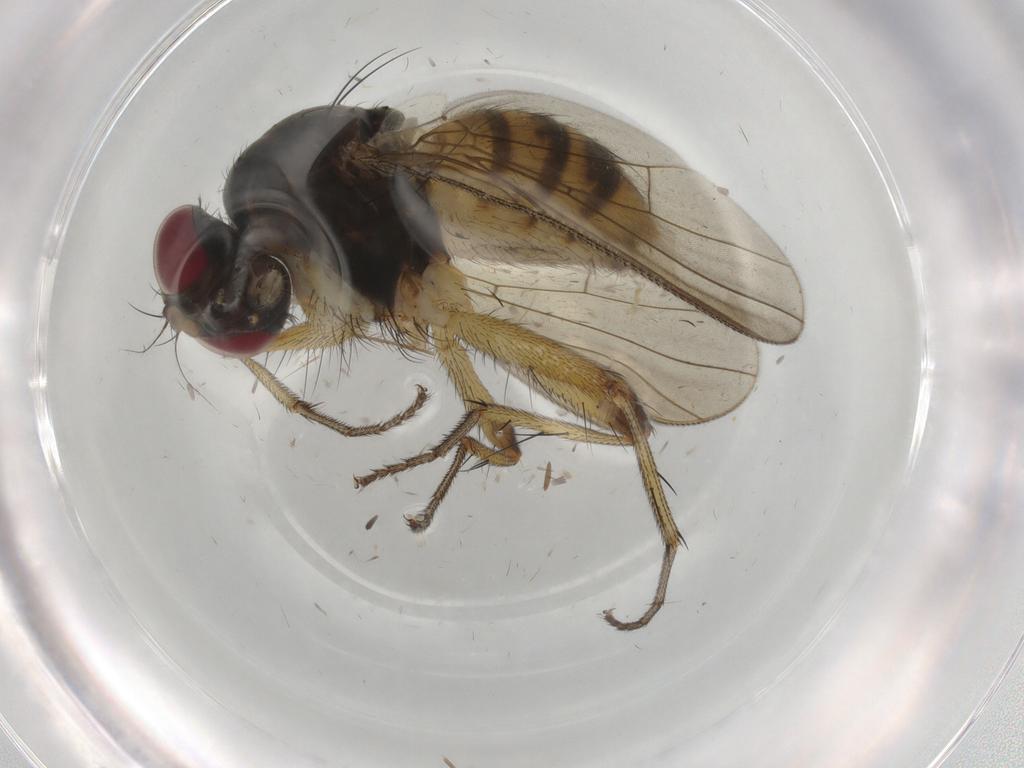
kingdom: Animalia
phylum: Arthropoda
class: Insecta
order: Diptera
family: Muscidae
